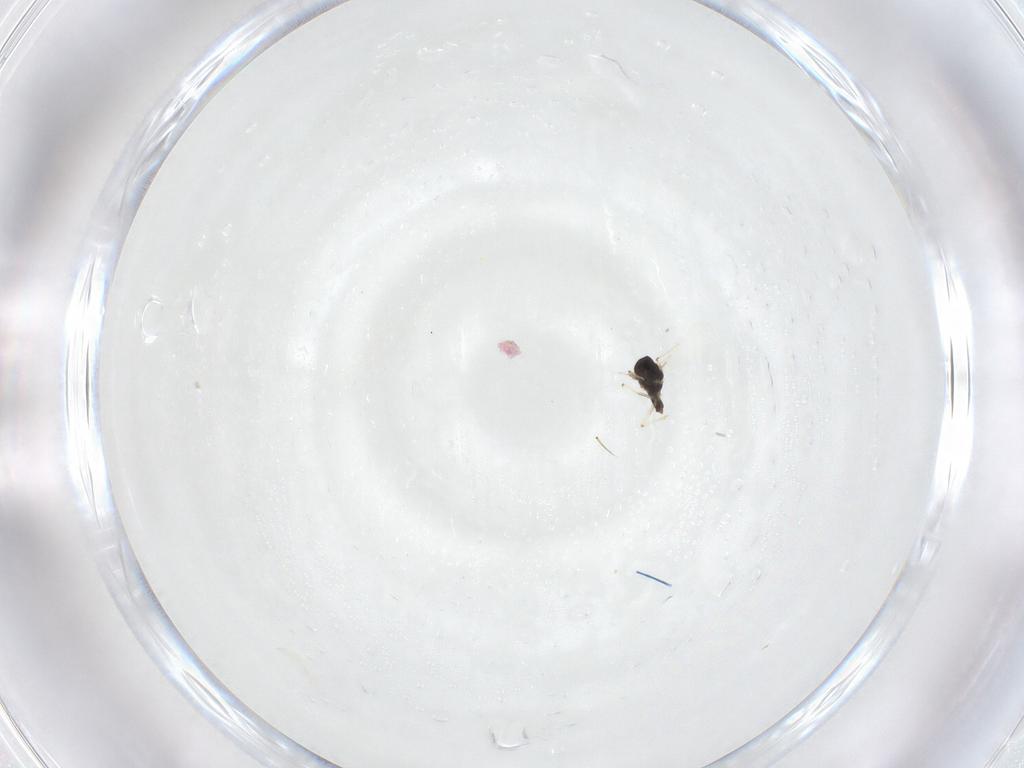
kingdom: Animalia
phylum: Arthropoda
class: Insecta
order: Diptera
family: Chironomidae
